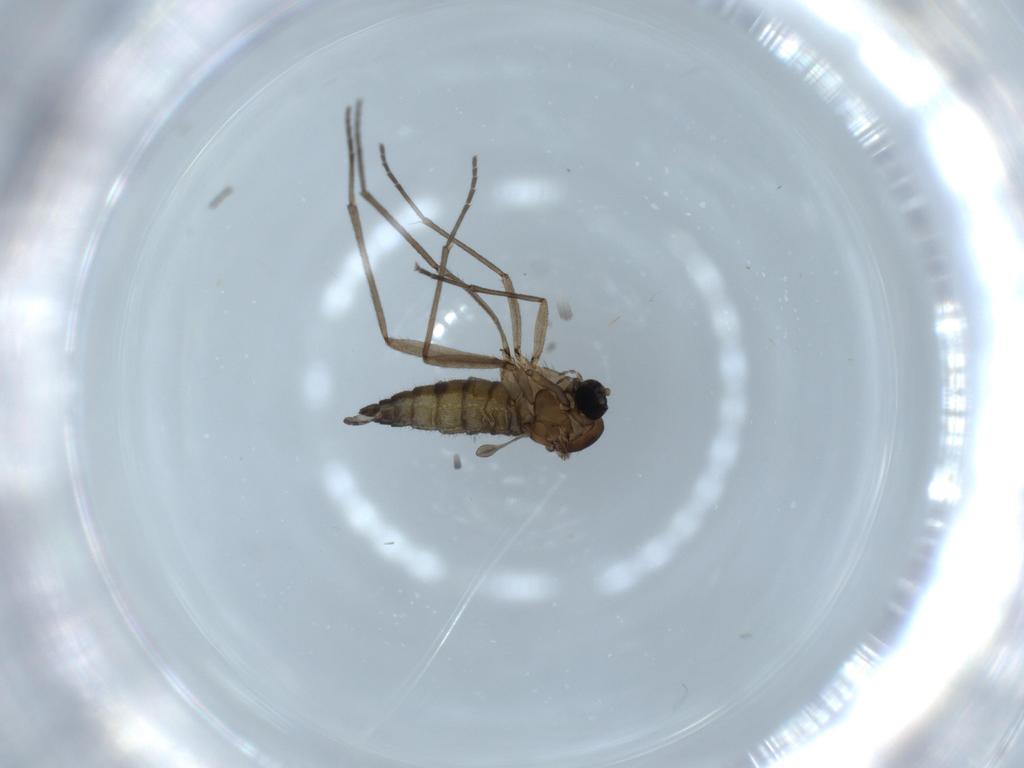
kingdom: Animalia
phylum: Arthropoda
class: Insecta
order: Diptera
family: Sciaridae
